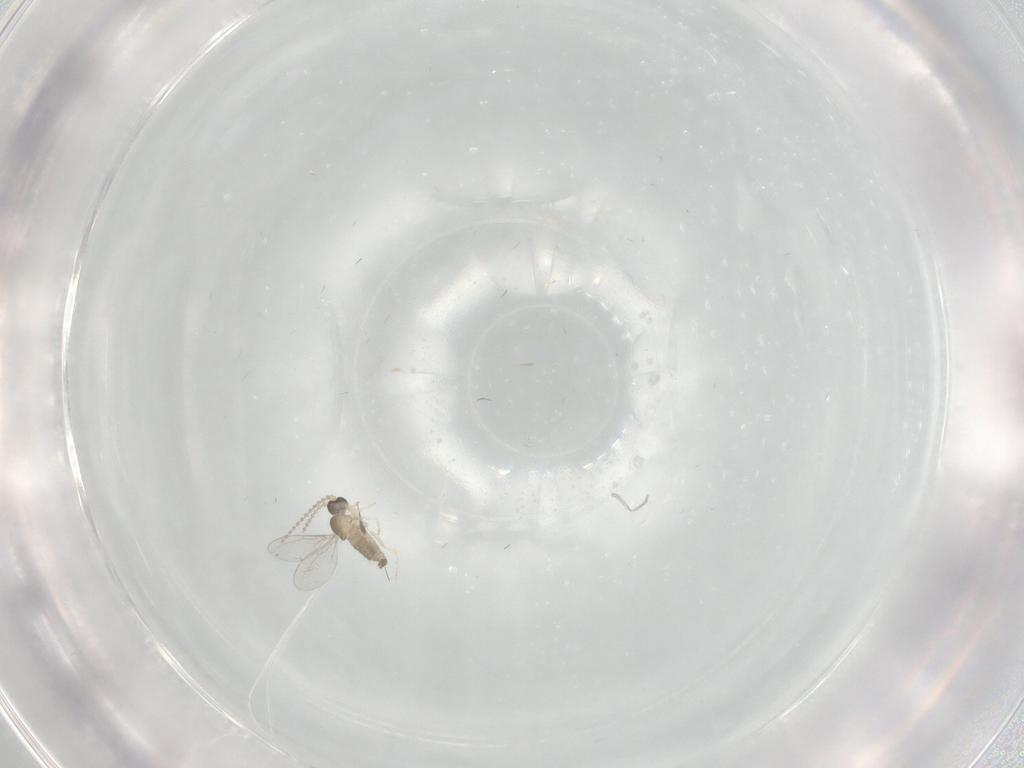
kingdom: Animalia
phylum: Arthropoda
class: Insecta
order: Diptera
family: Cecidomyiidae
